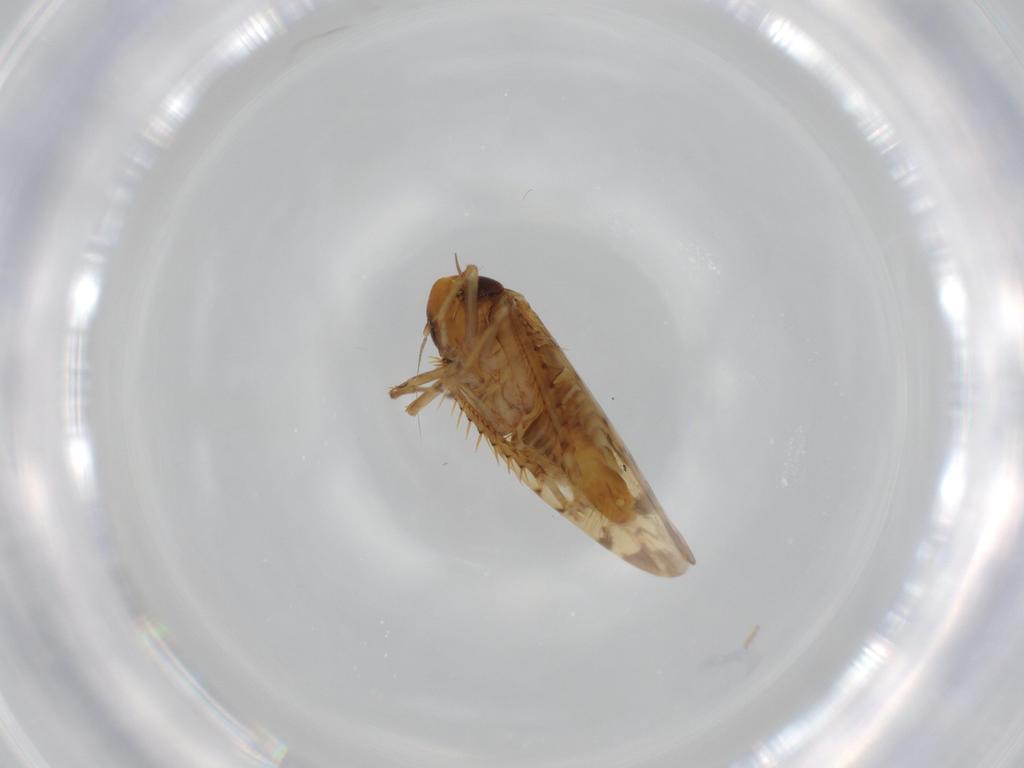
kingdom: Animalia
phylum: Arthropoda
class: Insecta
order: Hemiptera
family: Cicadellidae
